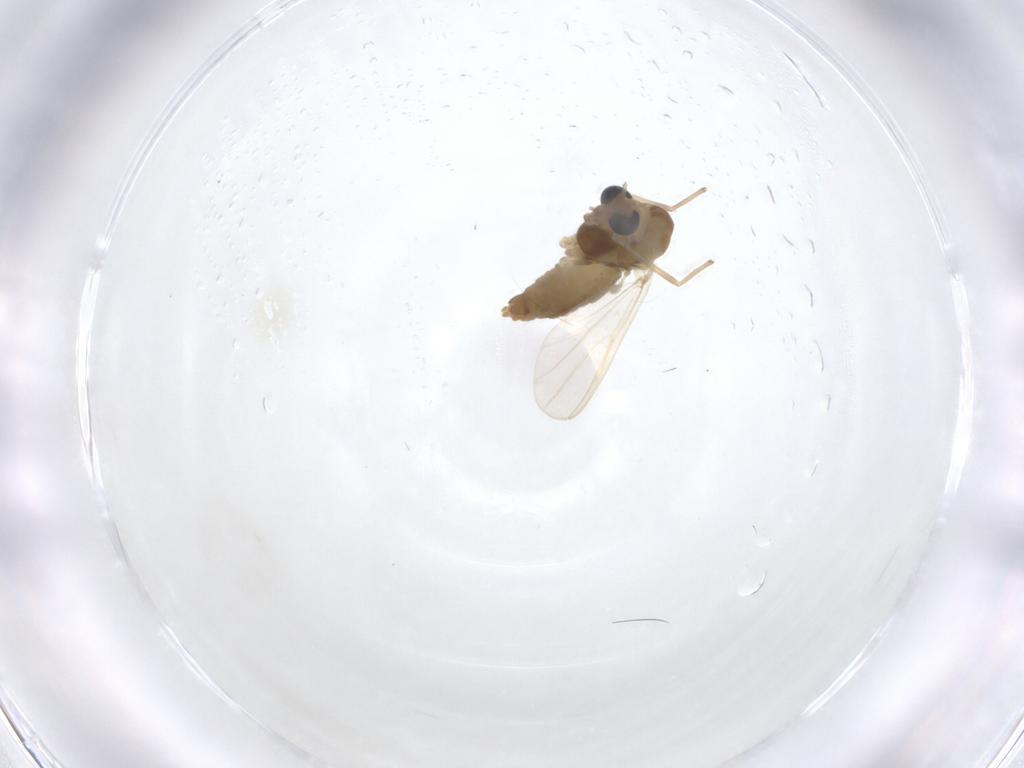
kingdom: Animalia
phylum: Arthropoda
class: Insecta
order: Diptera
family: Chironomidae
